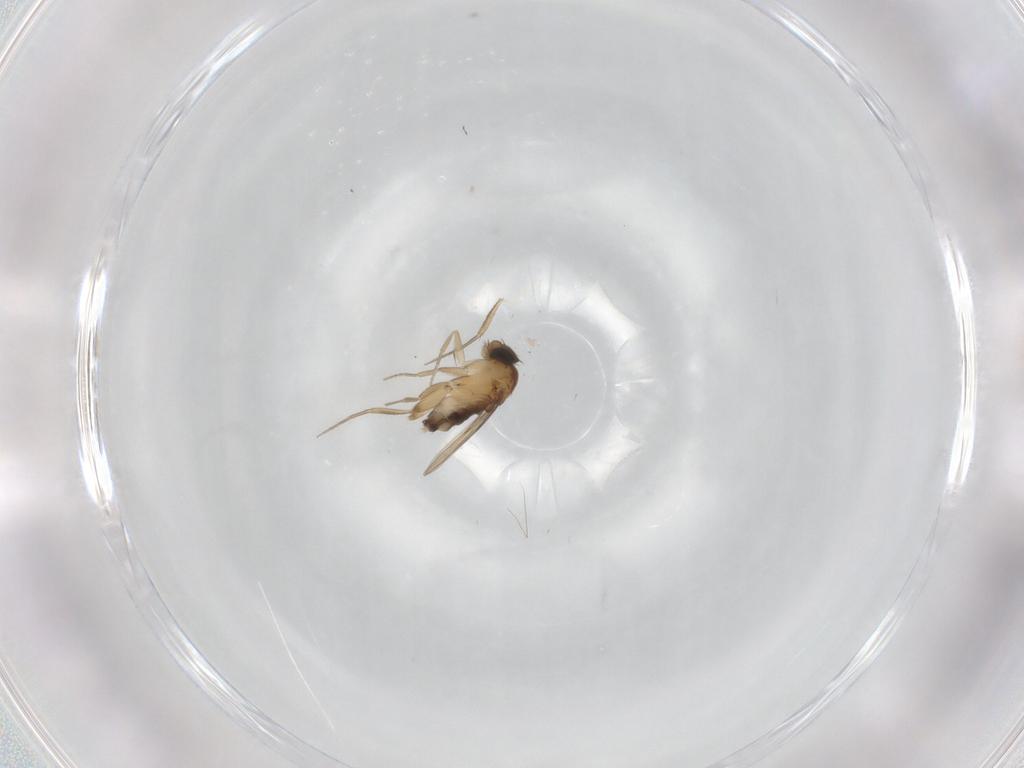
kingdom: Animalia
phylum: Arthropoda
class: Insecta
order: Diptera
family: Phoridae
